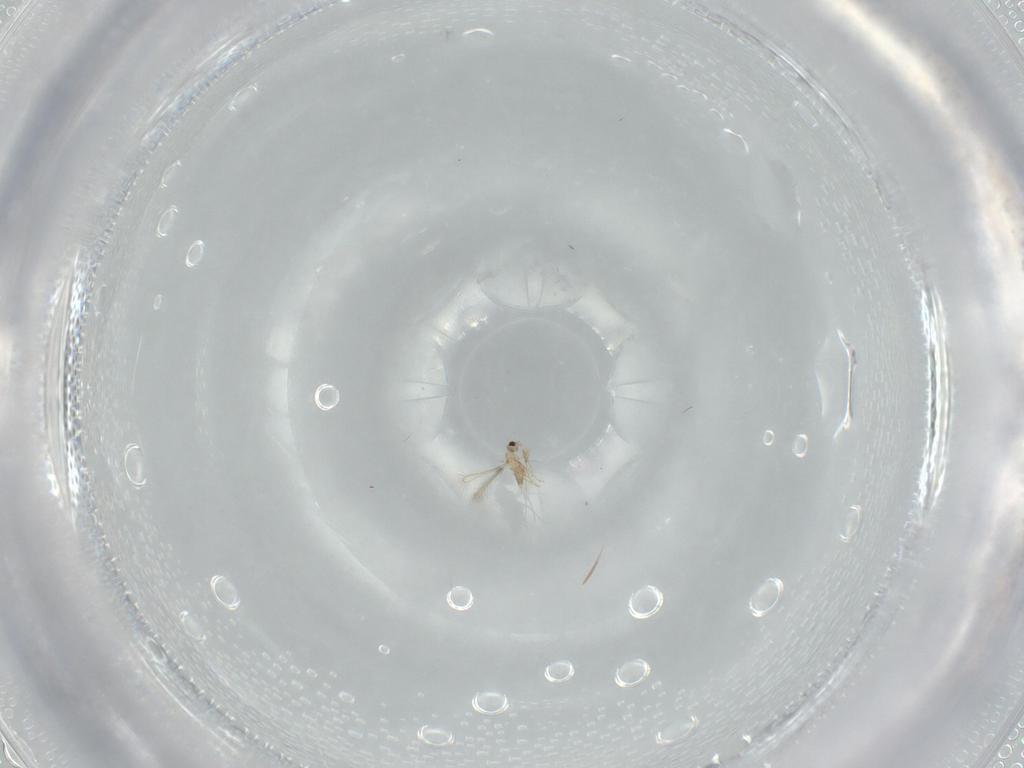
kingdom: Animalia
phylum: Arthropoda
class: Insecta
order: Hymenoptera
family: Mymaridae
